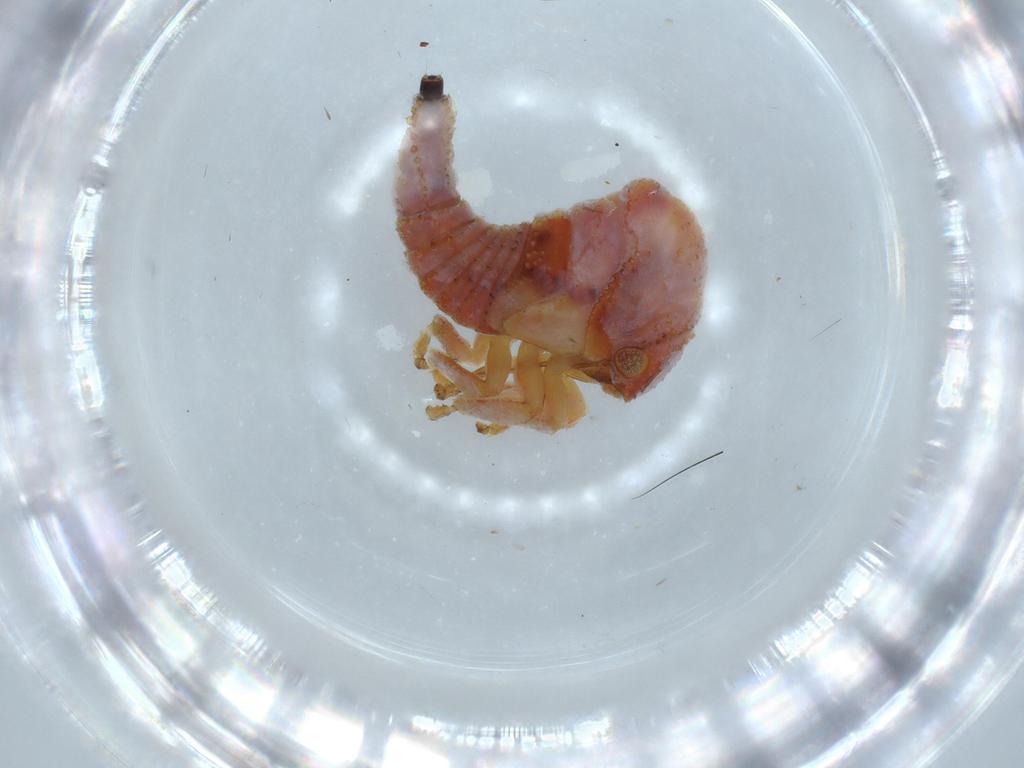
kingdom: Animalia
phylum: Arthropoda
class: Insecta
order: Hemiptera
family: Membracidae
